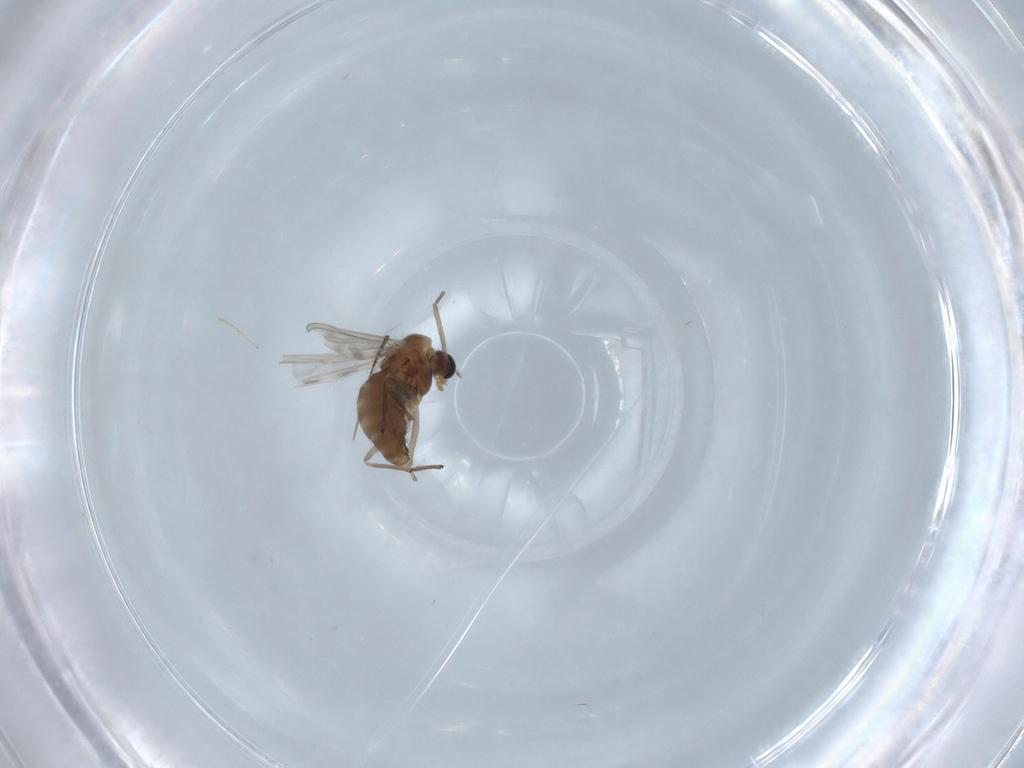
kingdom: Animalia
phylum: Arthropoda
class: Insecta
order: Diptera
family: Chironomidae
